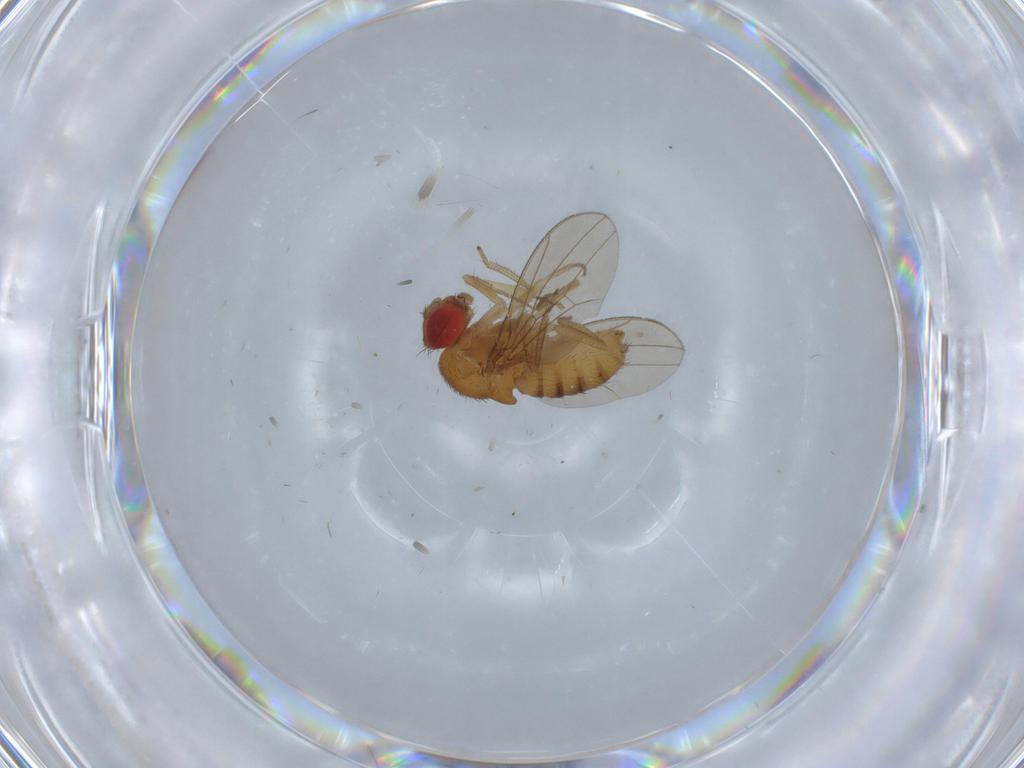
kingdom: Animalia
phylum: Arthropoda
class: Insecta
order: Diptera
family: Drosophilidae
